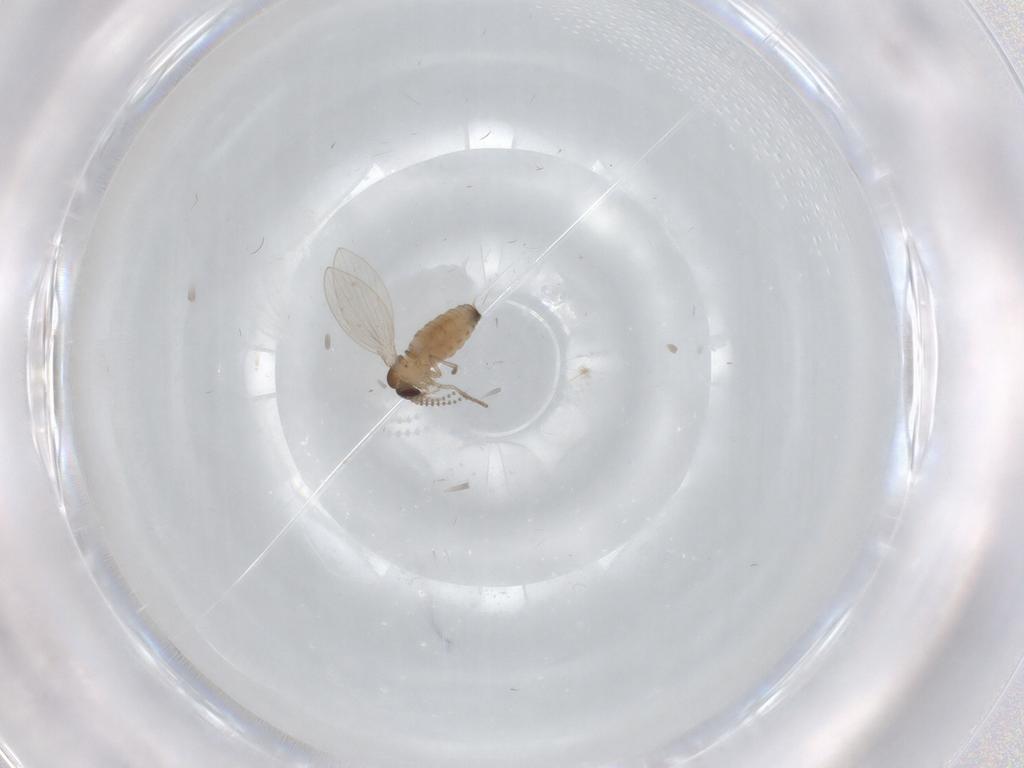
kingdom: Animalia
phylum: Arthropoda
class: Insecta
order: Diptera
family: Psychodidae
